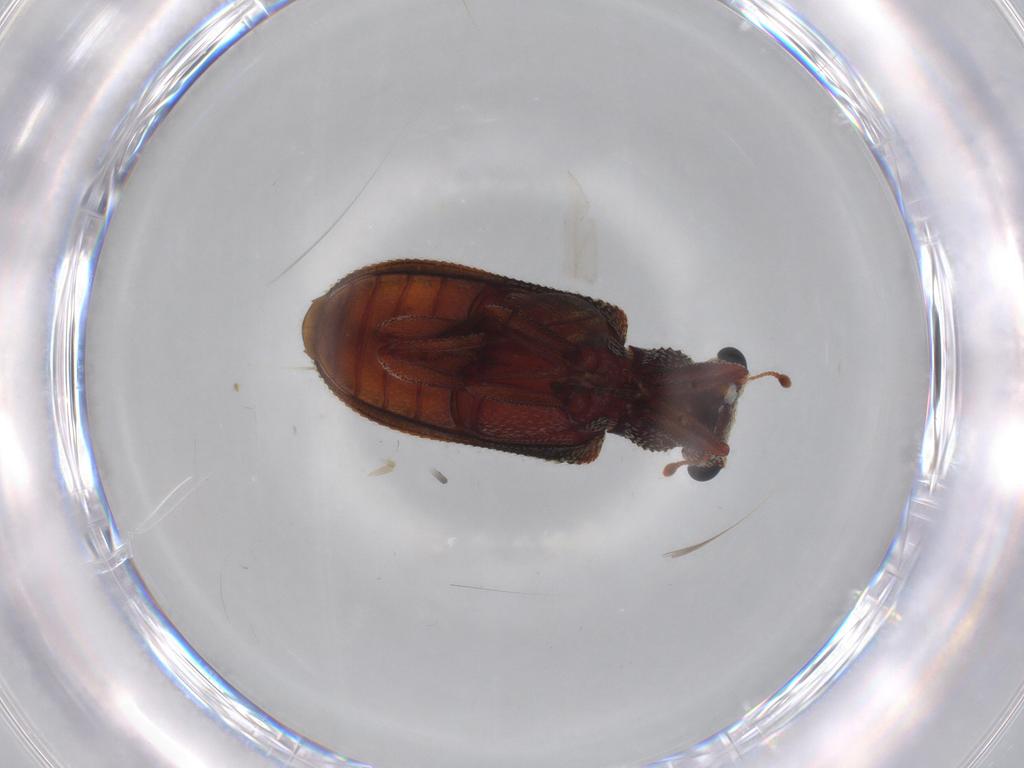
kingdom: Animalia
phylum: Arthropoda
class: Insecta
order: Coleoptera
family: Zopheridae
